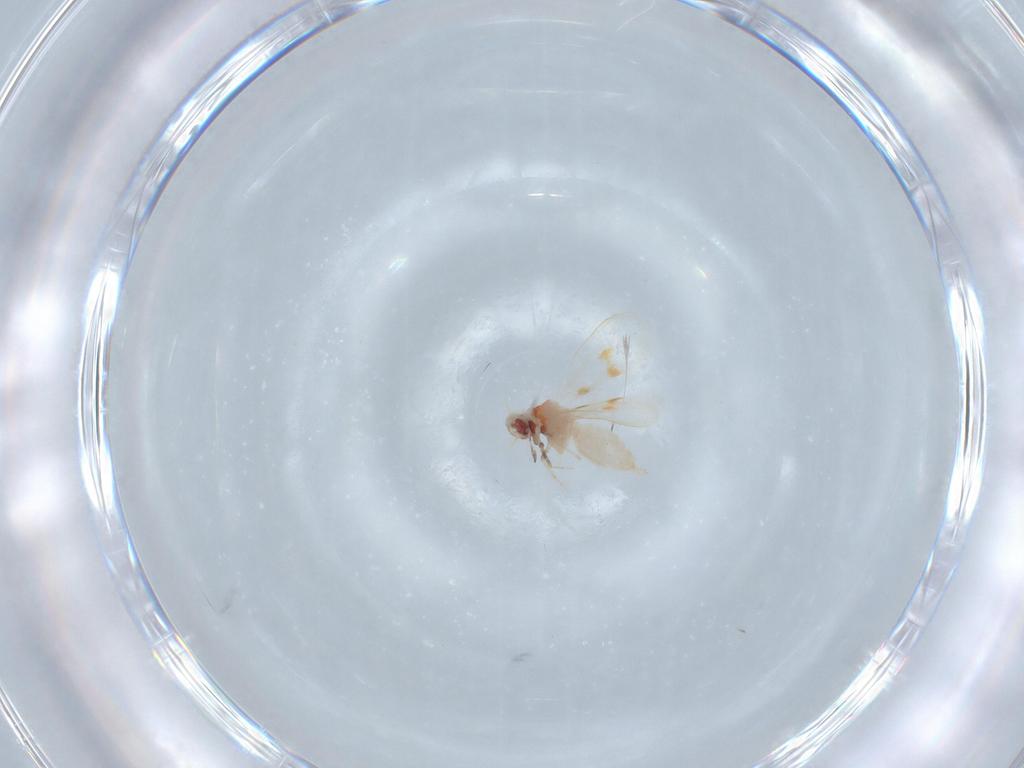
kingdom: Animalia
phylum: Arthropoda
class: Insecta
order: Hemiptera
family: Aleyrodidae
